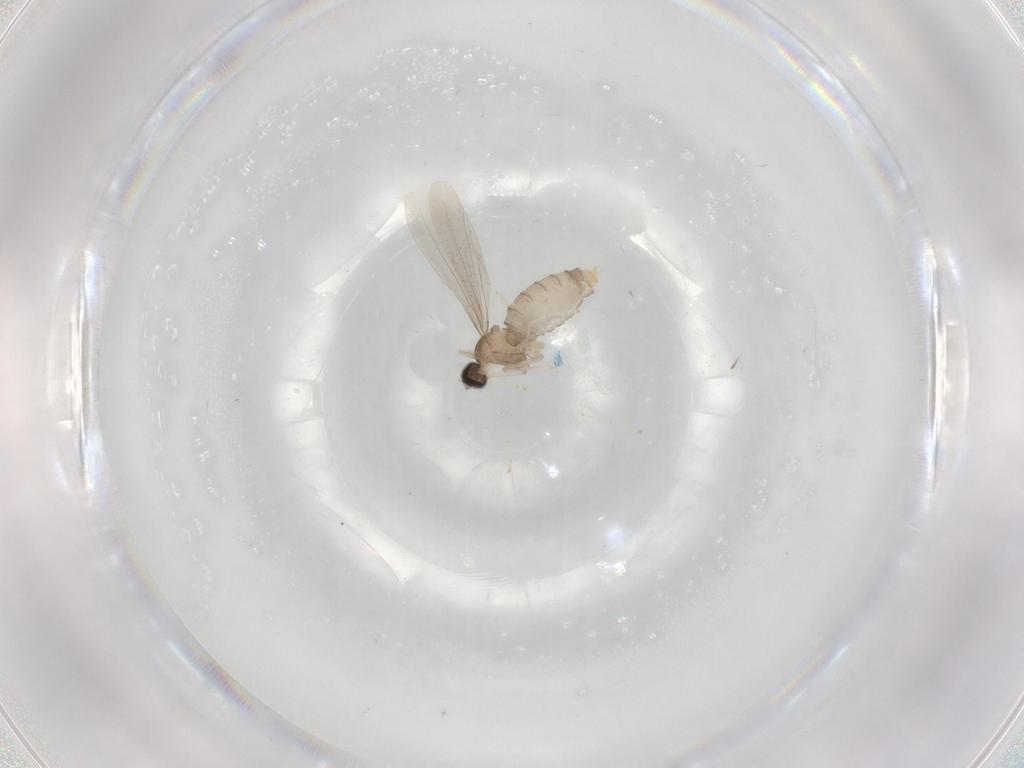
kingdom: Animalia
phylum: Arthropoda
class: Insecta
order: Diptera
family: Cecidomyiidae
